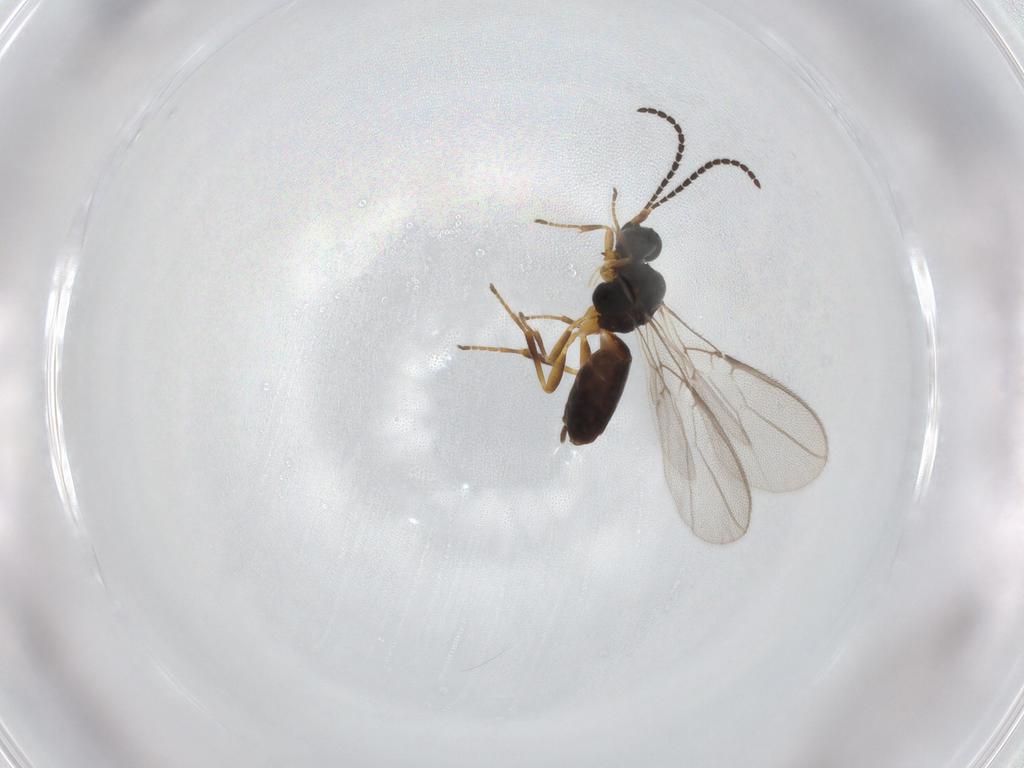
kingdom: Animalia
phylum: Arthropoda
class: Insecta
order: Hymenoptera
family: Braconidae
